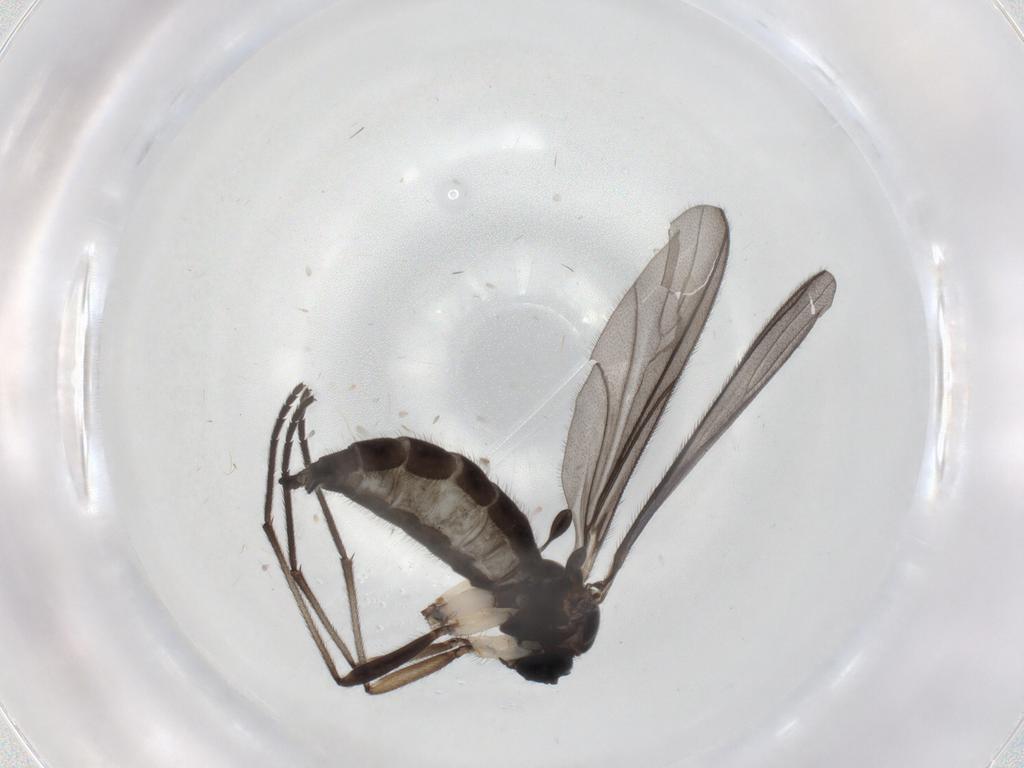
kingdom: Animalia
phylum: Arthropoda
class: Insecta
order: Diptera
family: Sciaridae
